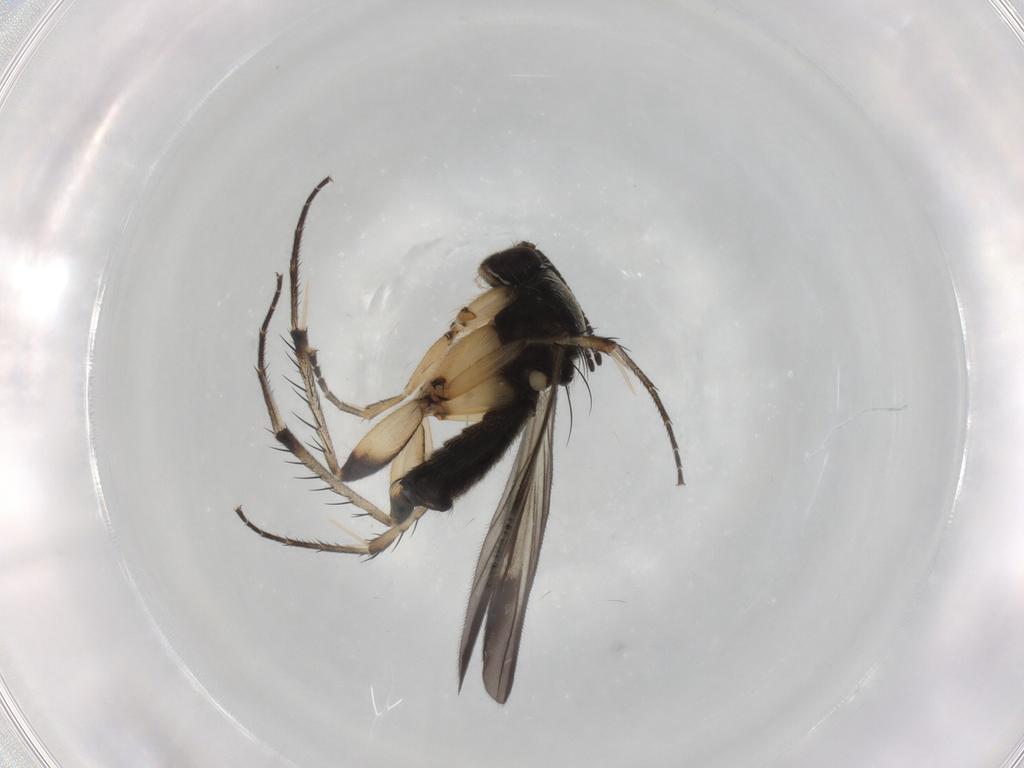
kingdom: Animalia
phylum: Arthropoda
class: Insecta
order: Diptera
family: Mycetophilidae
